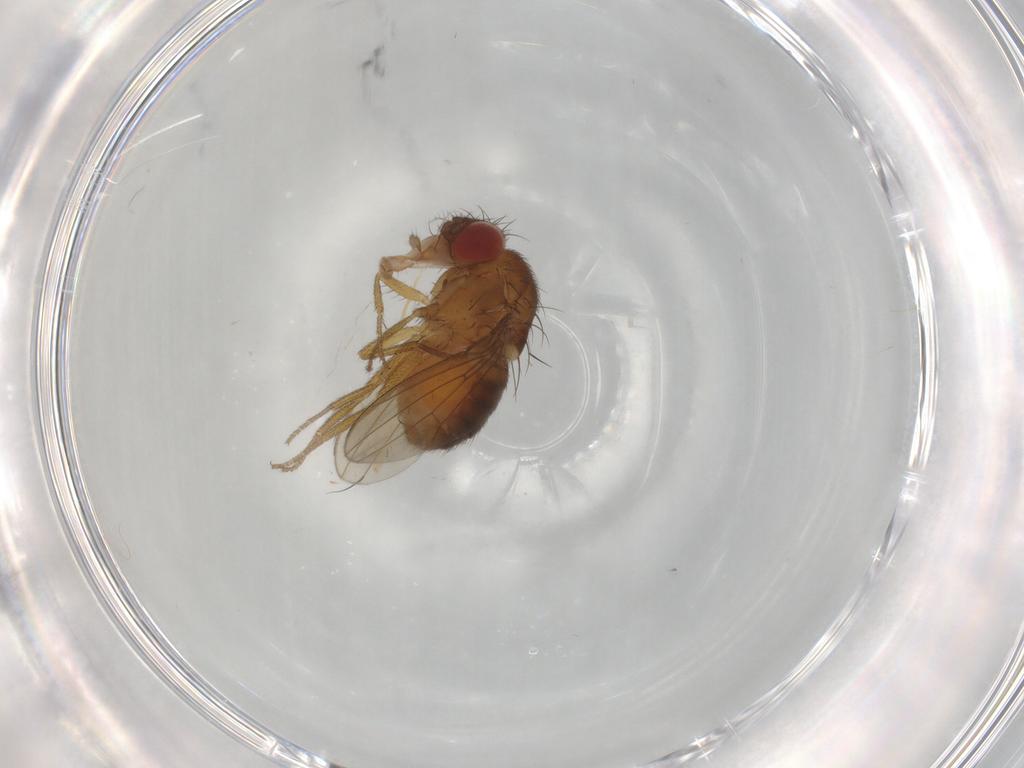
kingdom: Animalia
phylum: Arthropoda
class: Insecta
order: Diptera
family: Drosophilidae
